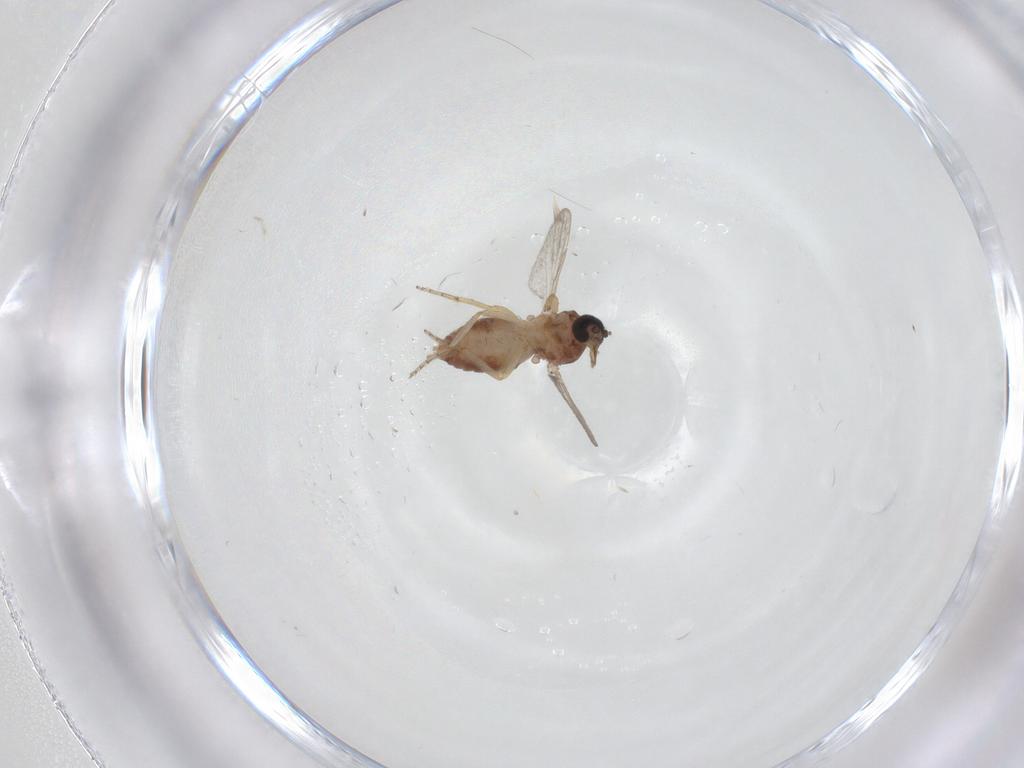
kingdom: Animalia
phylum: Arthropoda
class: Insecta
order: Diptera
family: Ceratopogonidae
